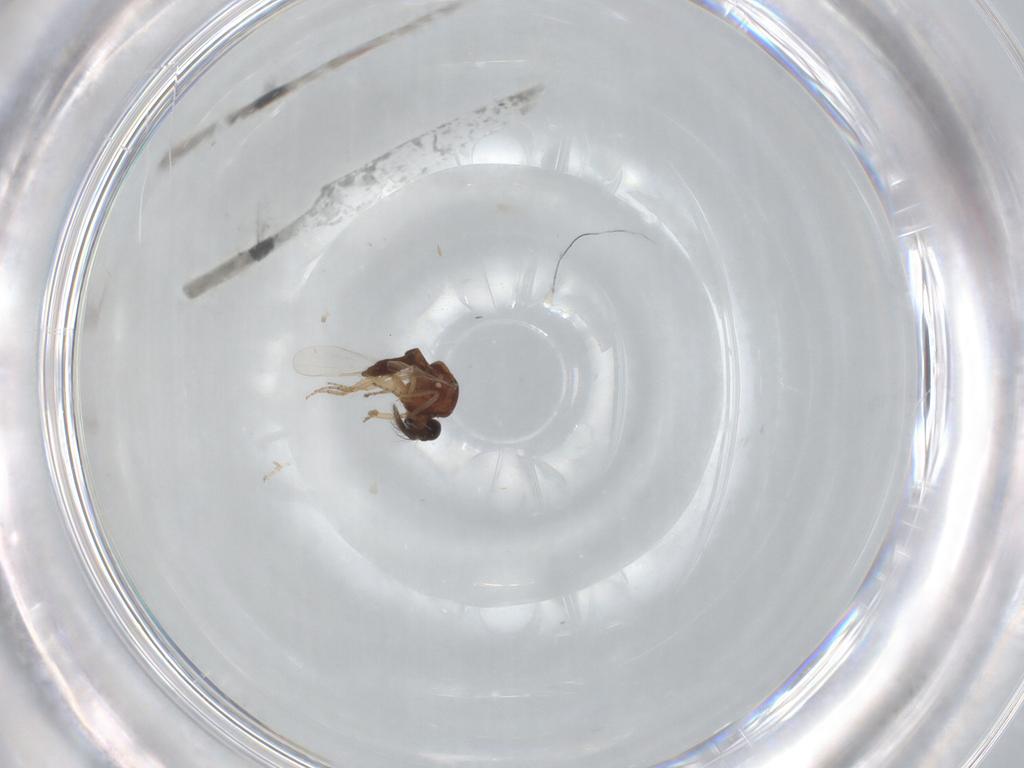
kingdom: Animalia
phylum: Arthropoda
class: Insecta
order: Diptera
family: Ceratopogonidae
